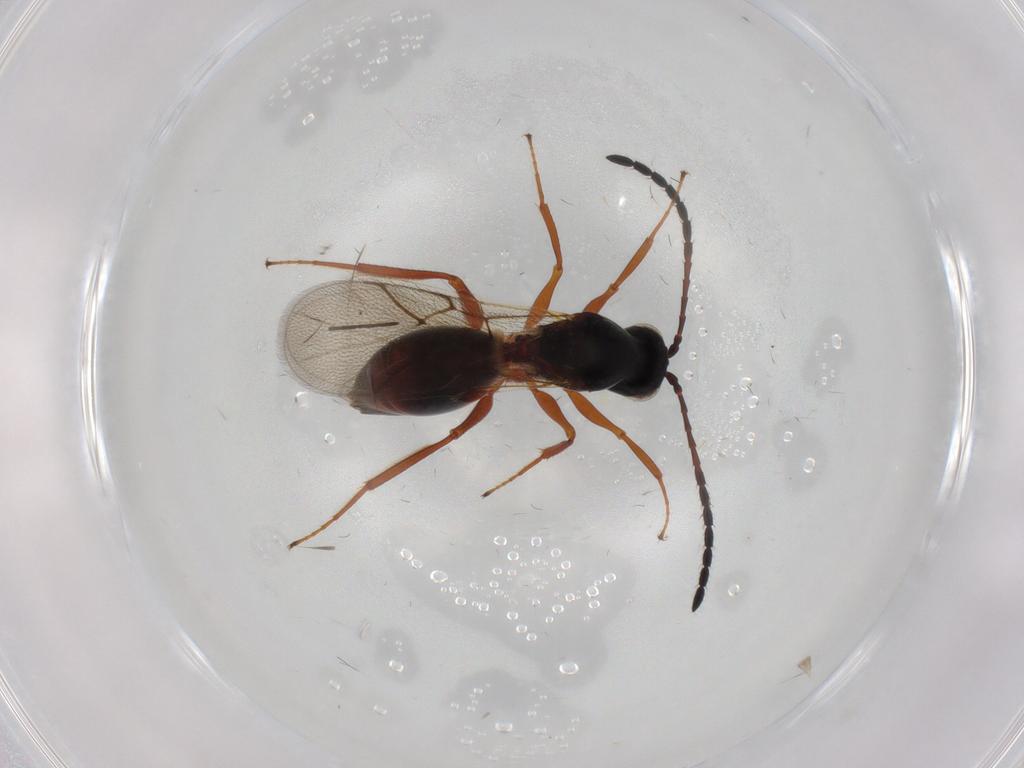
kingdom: Animalia
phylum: Arthropoda
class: Insecta
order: Hymenoptera
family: Figitidae
